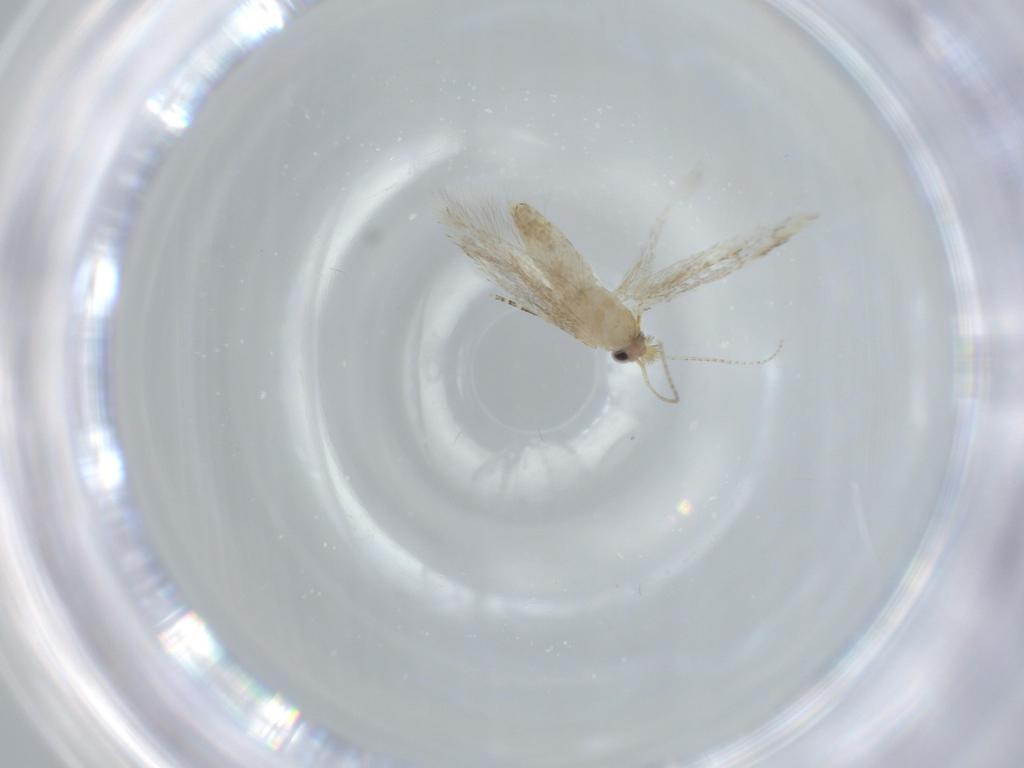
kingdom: Animalia
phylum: Arthropoda
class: Insecta
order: Lepidoptera
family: Bucculatricidae
